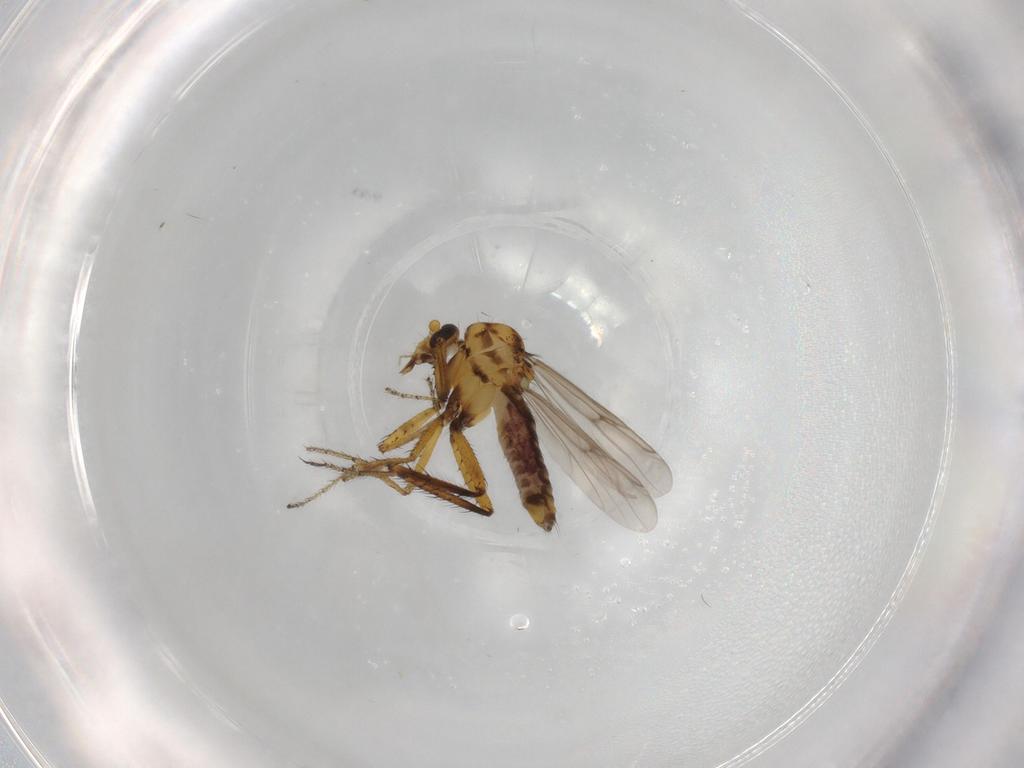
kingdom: Animalia
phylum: Arthropoda
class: Insecta
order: Diptera
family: Ceratopogonidae
